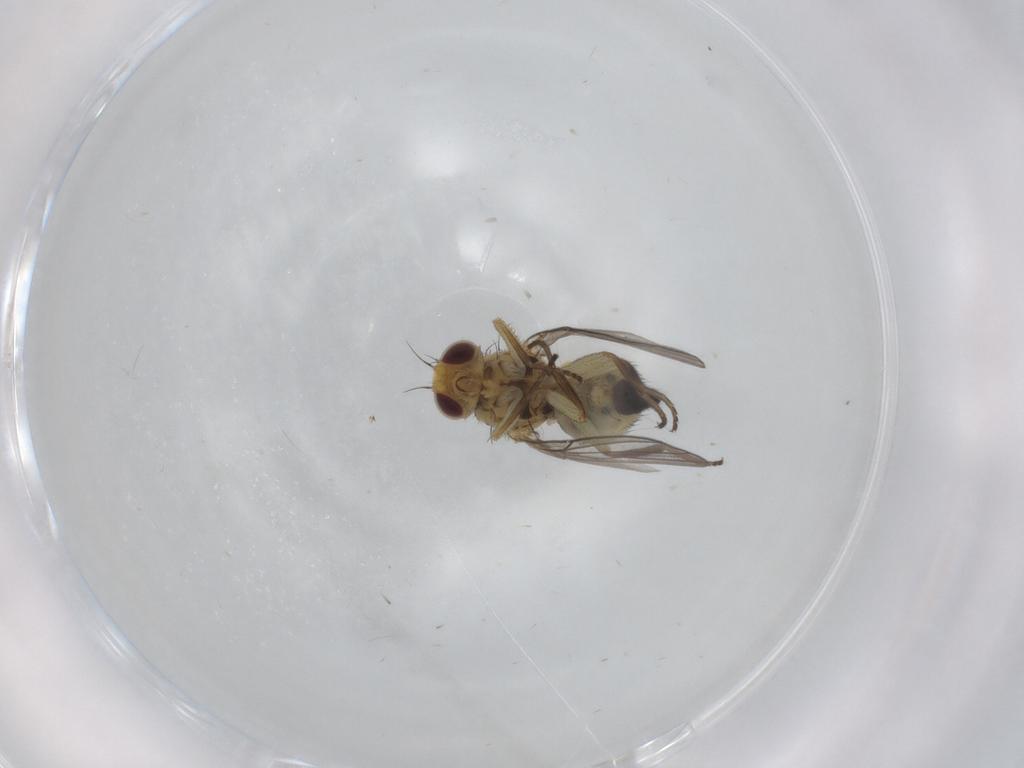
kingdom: Animalia
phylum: Arthropoda
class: Insecta
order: Diptera
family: Agromyzidae
